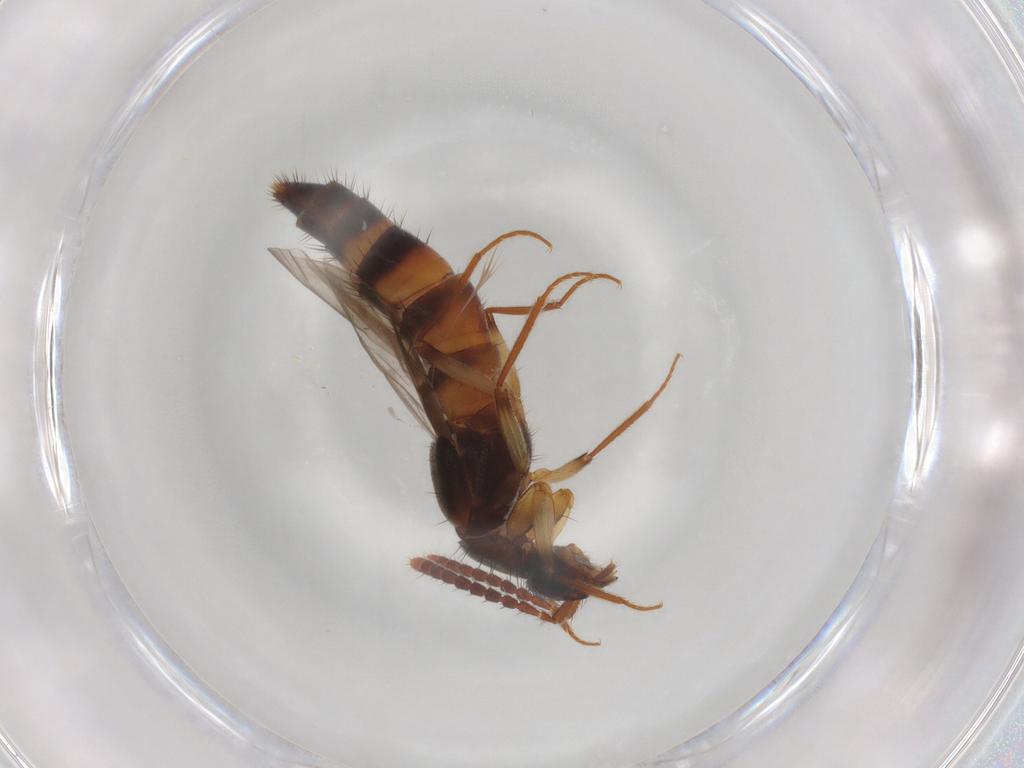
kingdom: Animalia
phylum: Arthropoda
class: Insecta
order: Coleoptera
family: Staphylinidae
